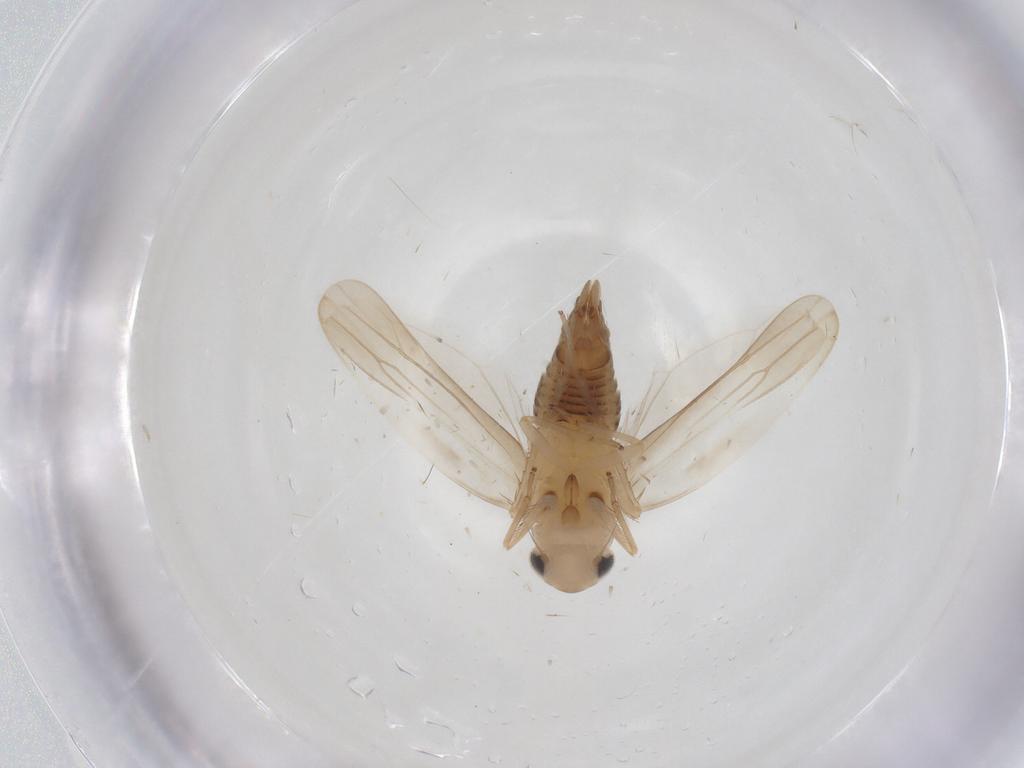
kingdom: Animalia
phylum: Arthropoda
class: Insecta
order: Hemiptera
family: Cicadellidae
